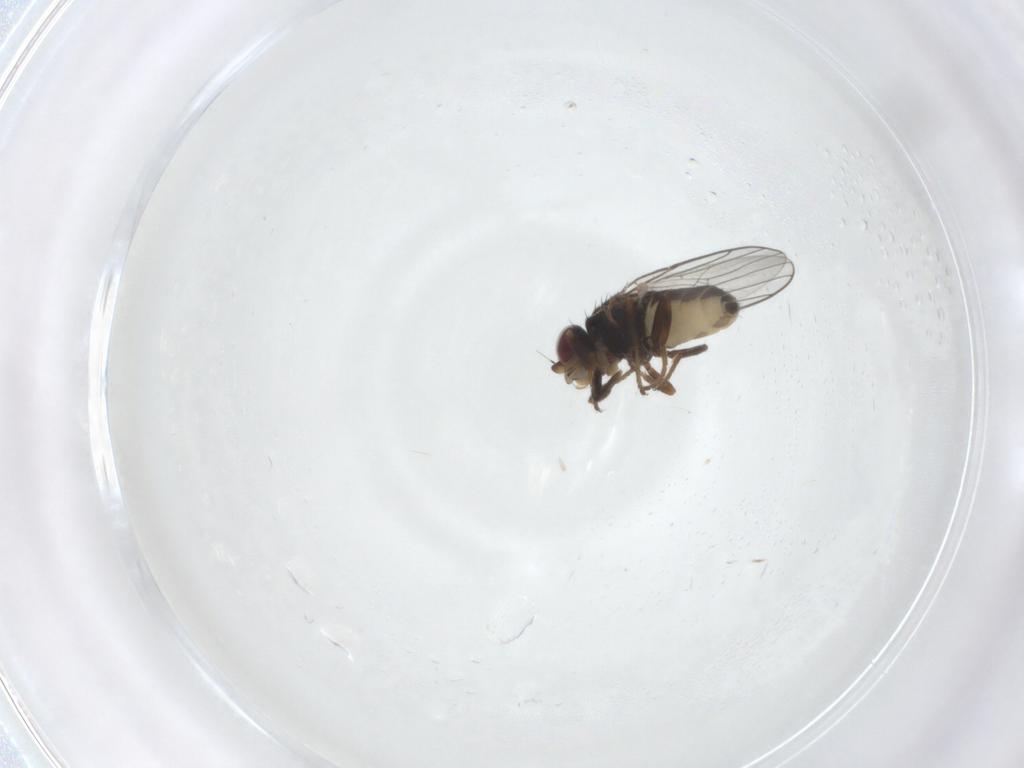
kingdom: Animalia
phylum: Arthropoda
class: Insecta
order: Diptera
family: Chloropidae
